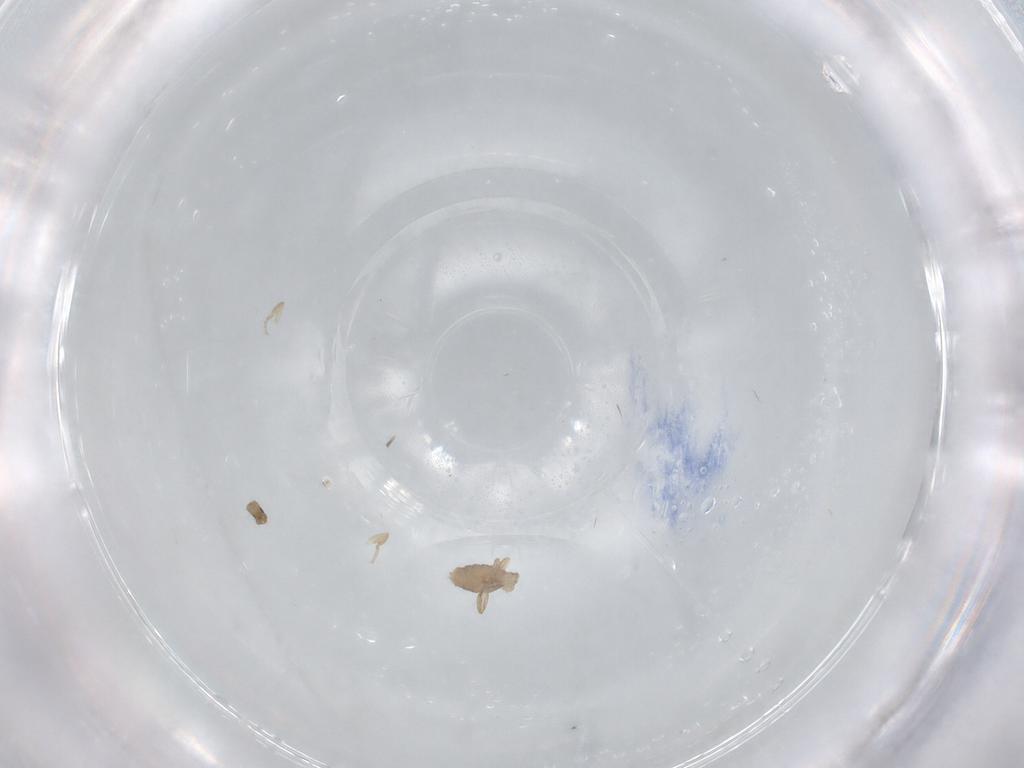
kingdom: Animalia
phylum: Arthropoda
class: Insecta
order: Diptera
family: Phoridae
